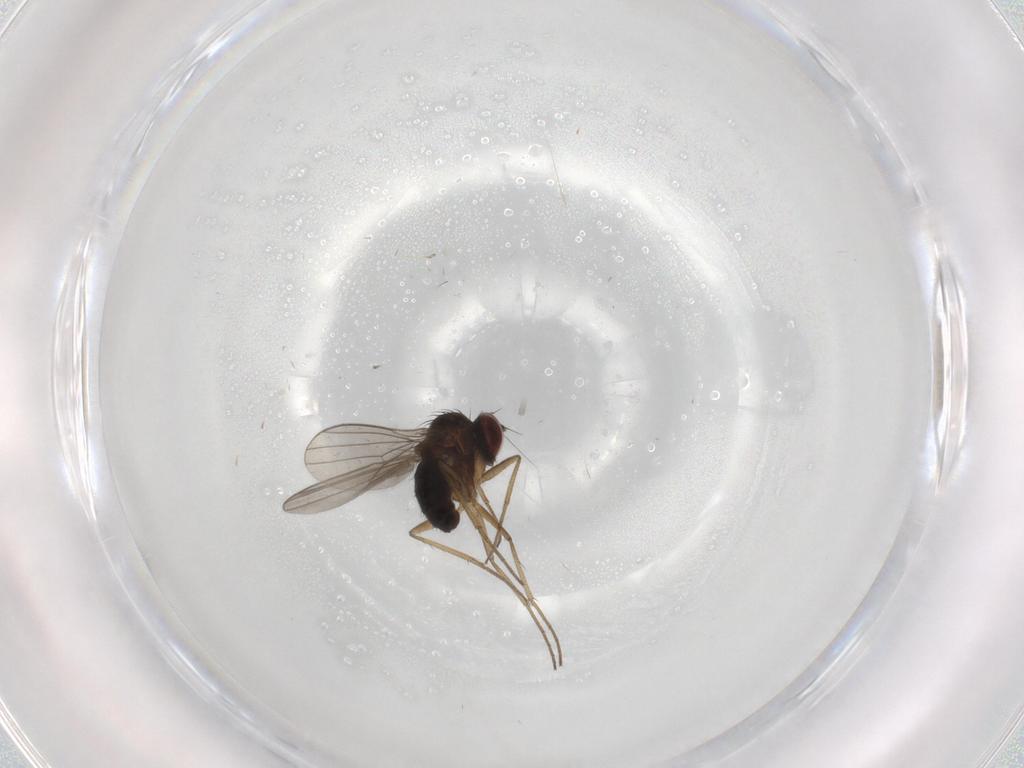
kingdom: Animalia
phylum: Arthropoda
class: Insecta
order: Diptera
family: Dolichopodidae
